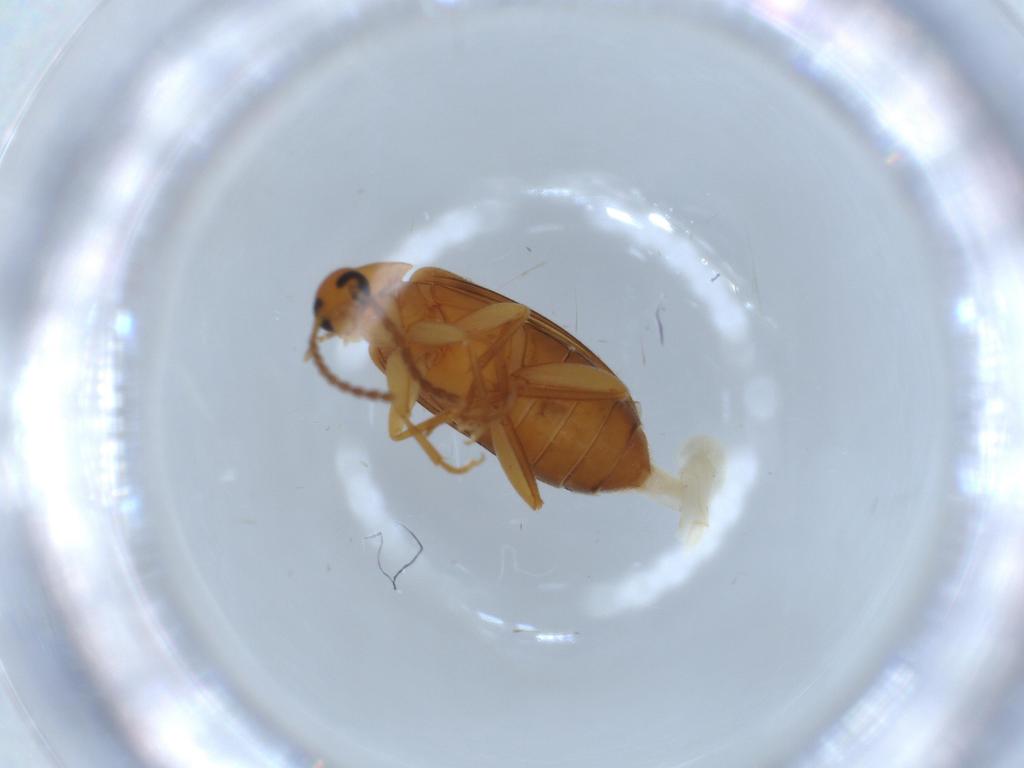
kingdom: Animalia
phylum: Arthropoda
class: Insecta
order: Coleoptera
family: Scraptiidae
